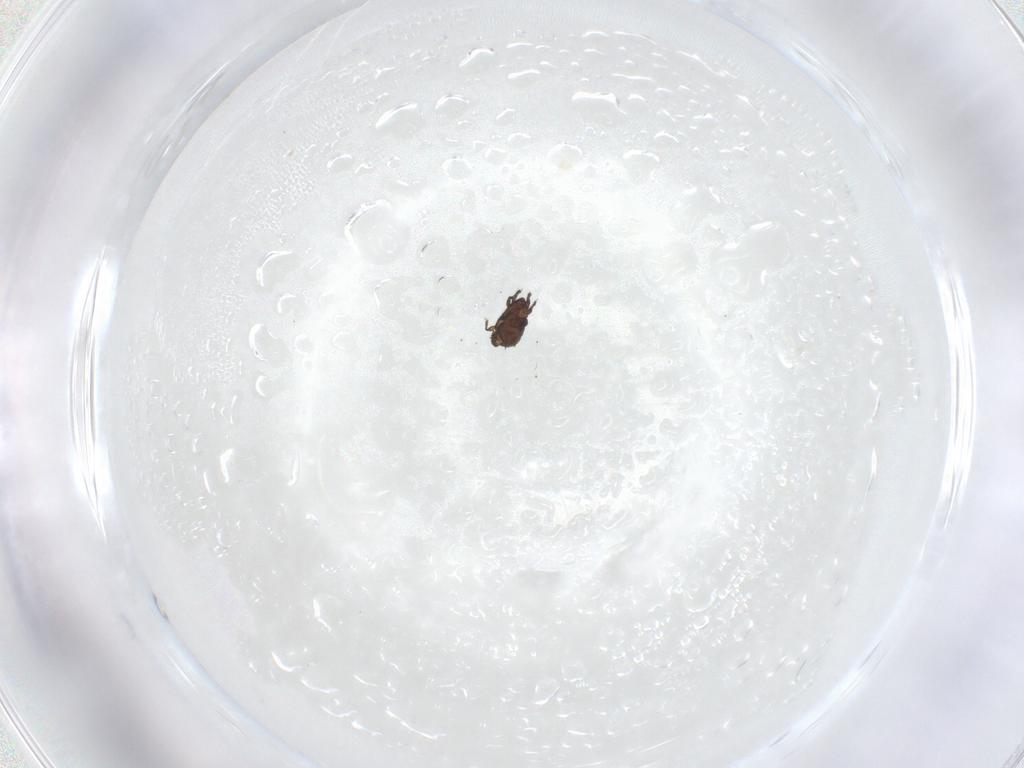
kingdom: Animalia
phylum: Arthropoda
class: Arachnida
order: Sarcoptiformes
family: Cymbaeremaeidae
